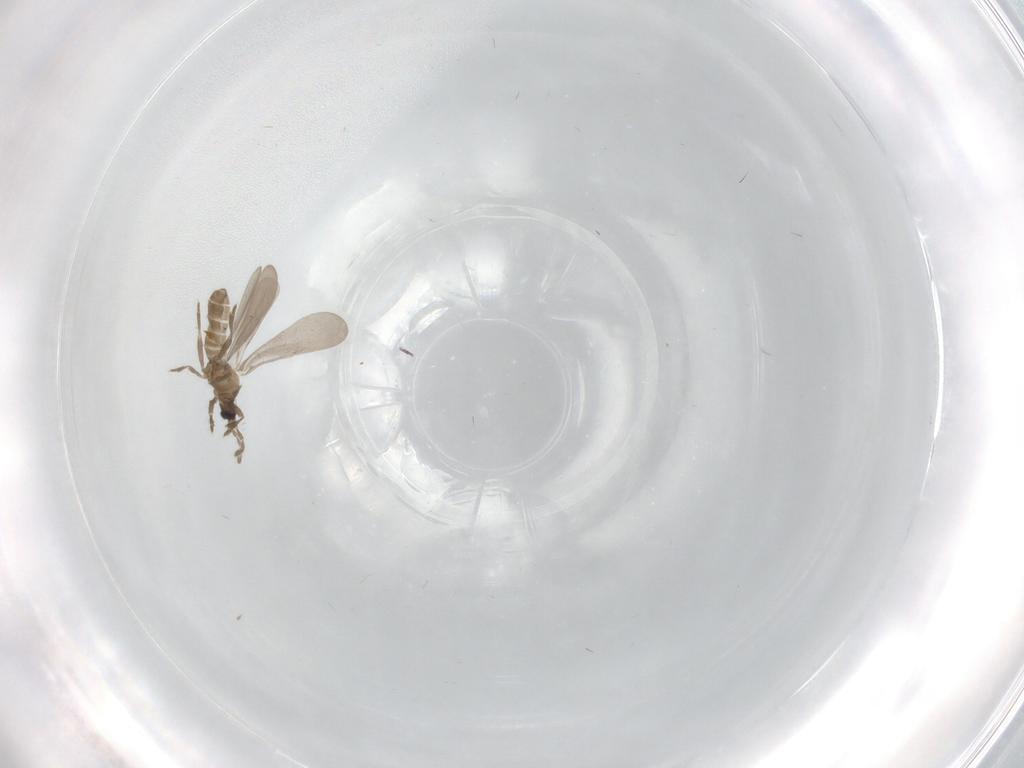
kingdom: Animalia
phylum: Arthropoda
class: Insecta
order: Hemiptera
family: Enicocephalidae
